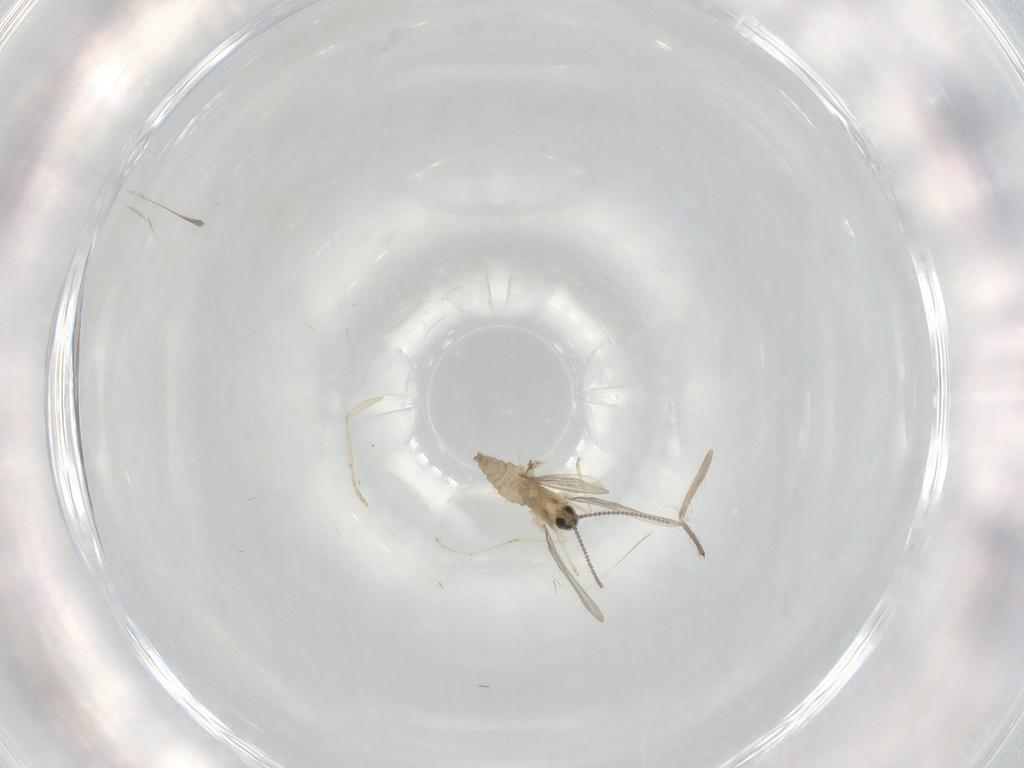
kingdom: Animalia
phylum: Arthropoda
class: Insecta
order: Diptera
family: Cecidomyiidae
